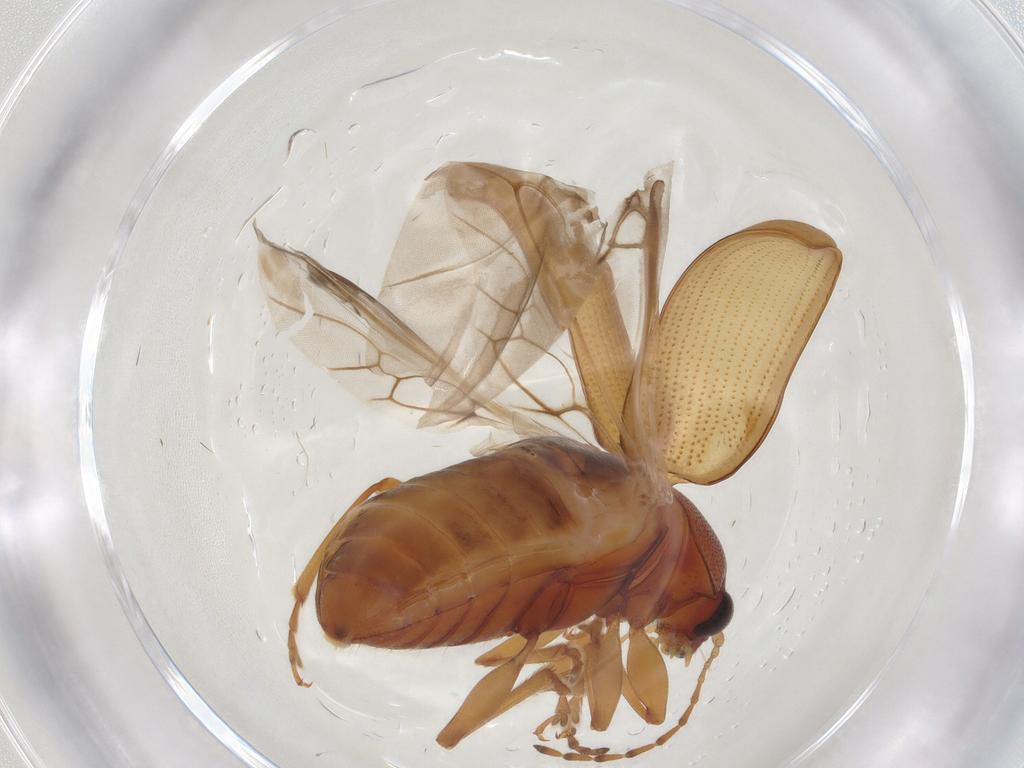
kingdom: Animalia
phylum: Arthropoda
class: Insecta
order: Coleoptera
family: Chrysomelidae
